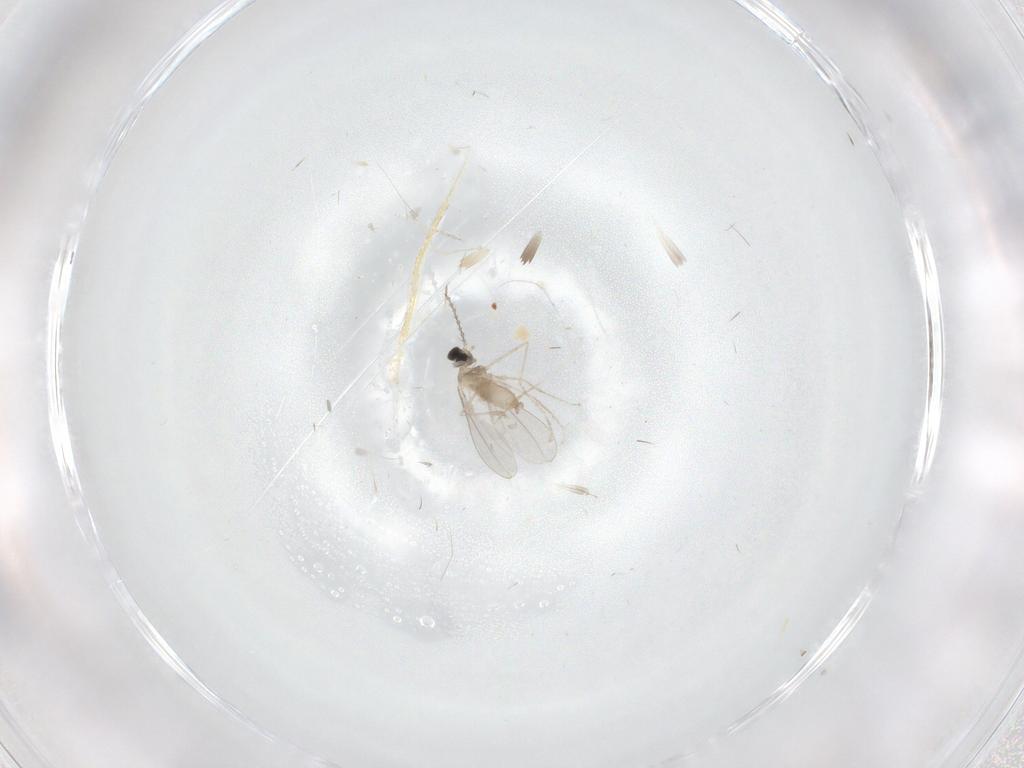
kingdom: Animalia
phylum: Arthropoda
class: Insecta
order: Diptera
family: Cecidomyiidae
